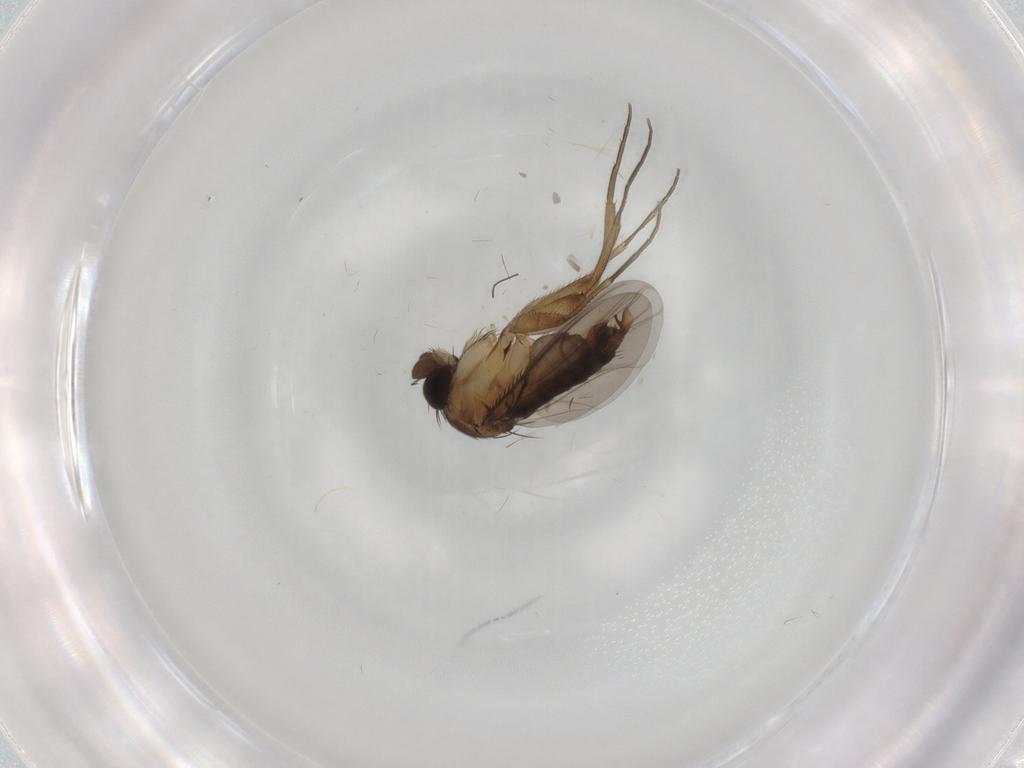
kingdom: Animalia
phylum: Arthropoda
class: Insecta
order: Diptera
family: Phoridae
